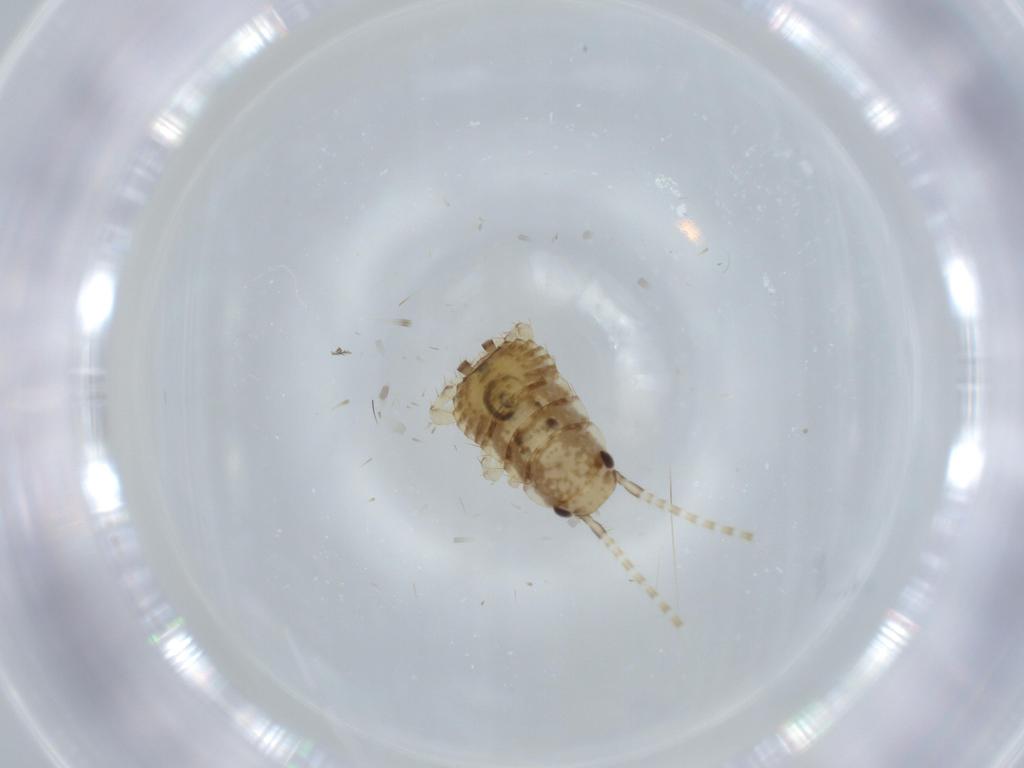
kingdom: Animalia
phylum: Arthropoda
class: Insecta
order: Blattodea
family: Ectobiidae
